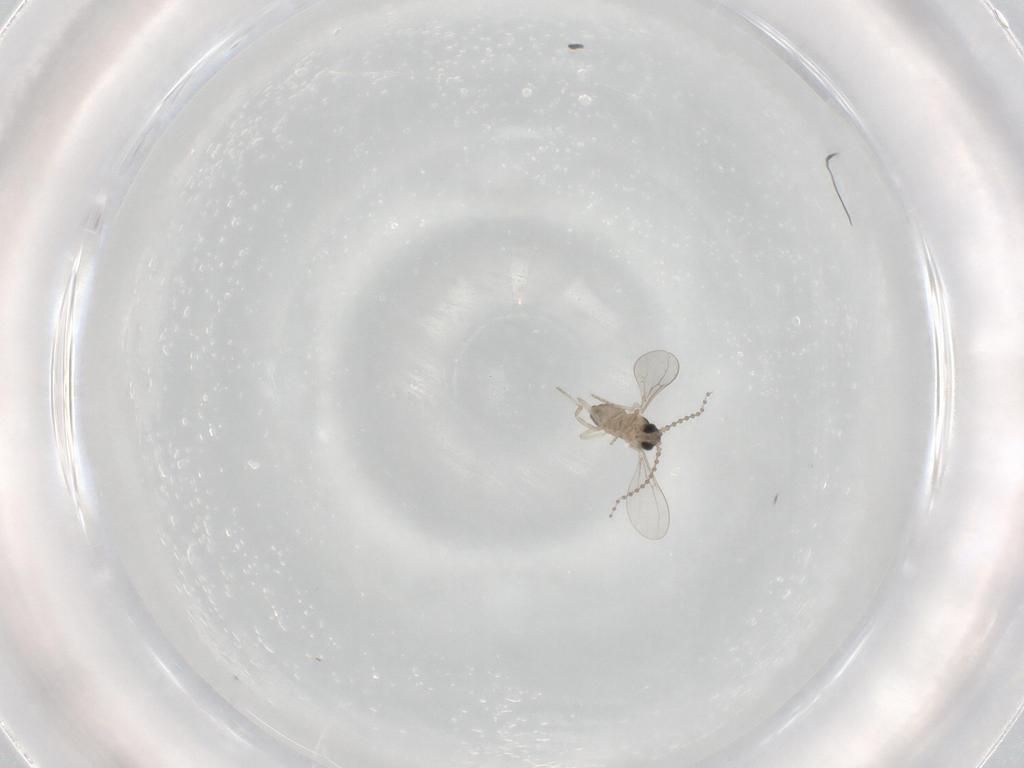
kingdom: Animalia
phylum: Arthropoda
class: Insecta
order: Diptera
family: Cecidomyiidae
